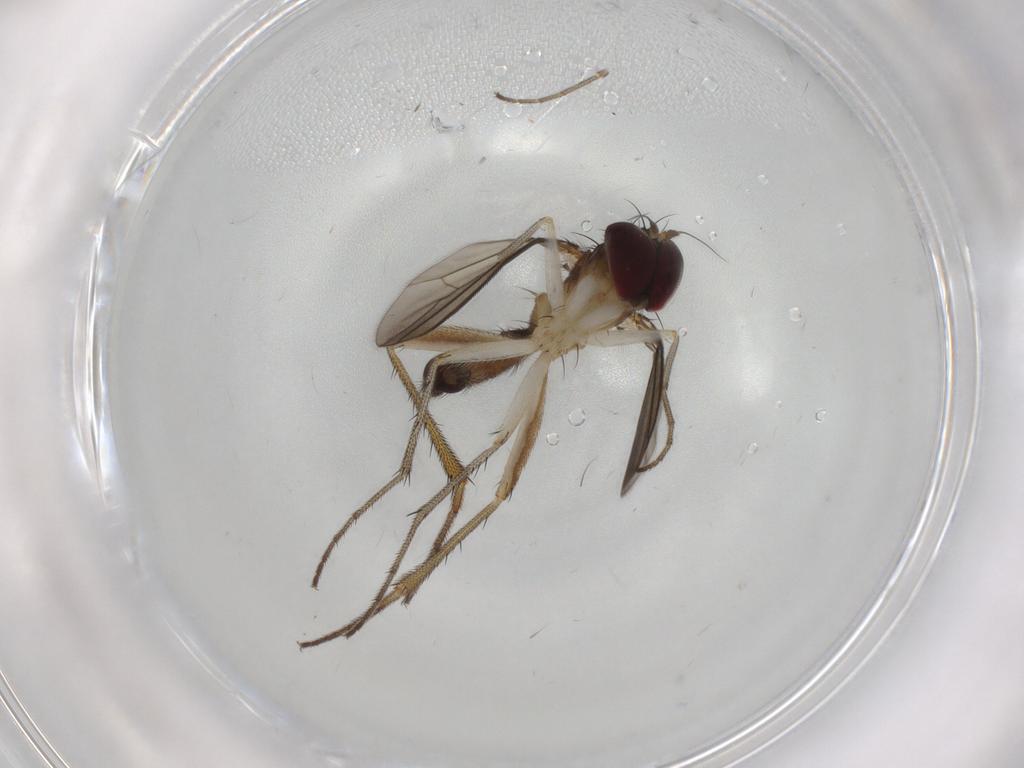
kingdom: Animalia
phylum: Arthropoda
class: Insecta
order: Diptera
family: Dolichopodidae
